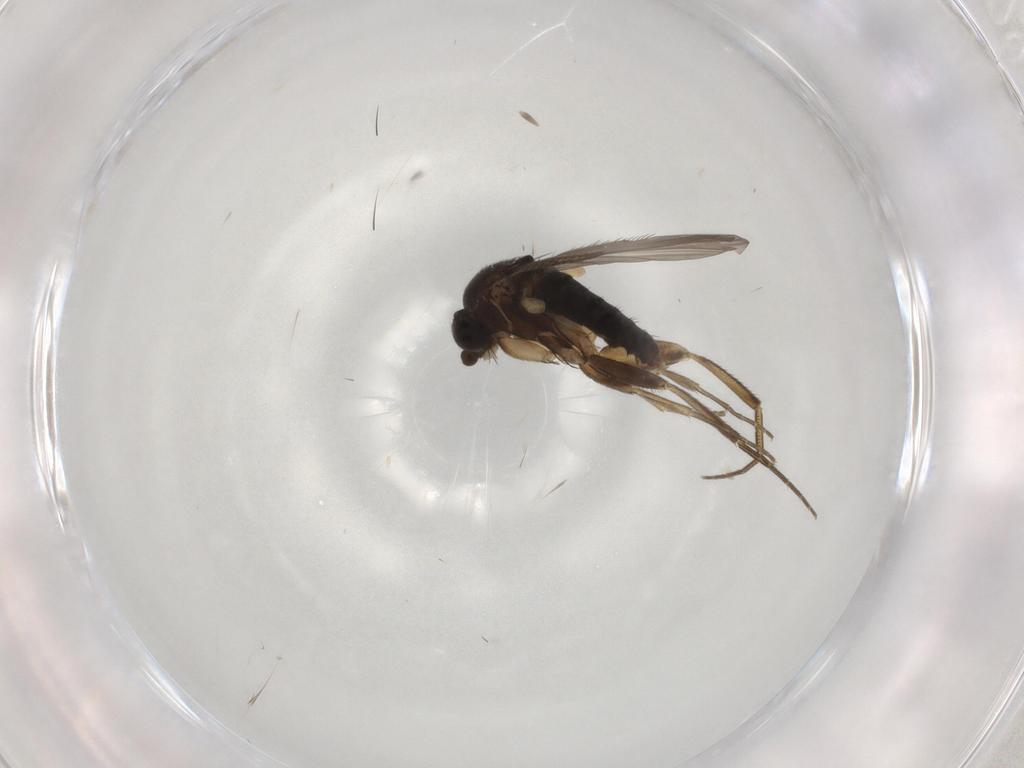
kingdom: Animalia
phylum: Arthropoda
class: Insecta
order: Diptera
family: Phoridae
